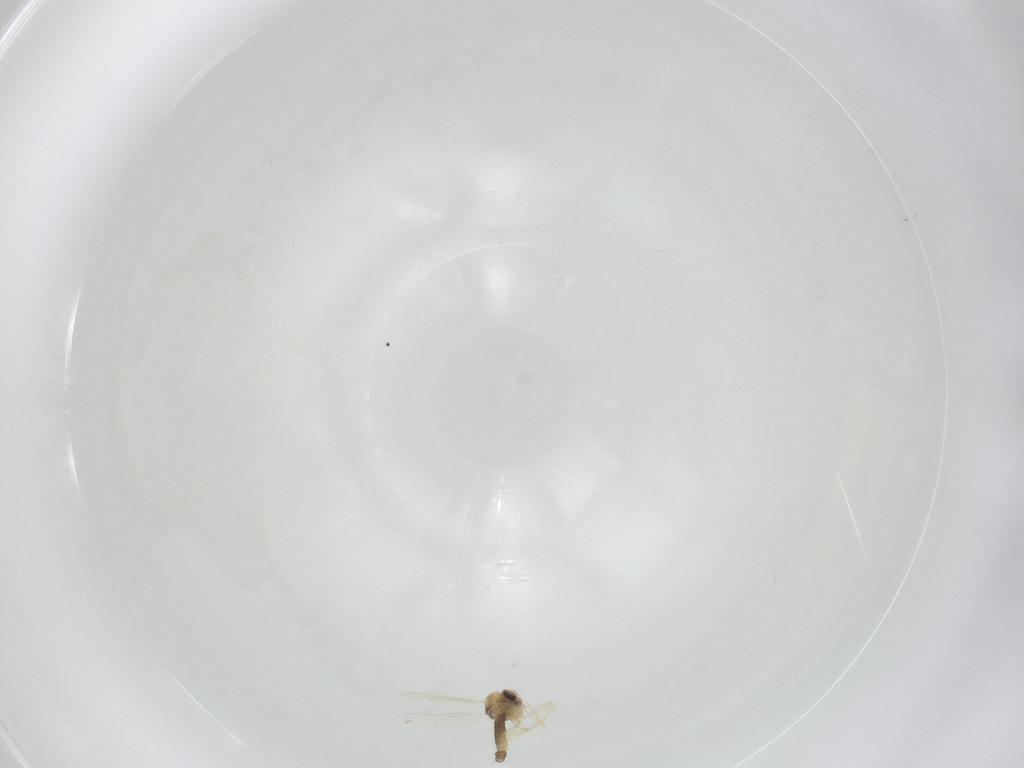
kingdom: Animalia
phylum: Arthropoda
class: Insecta
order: Diptera
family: Chironomidae
